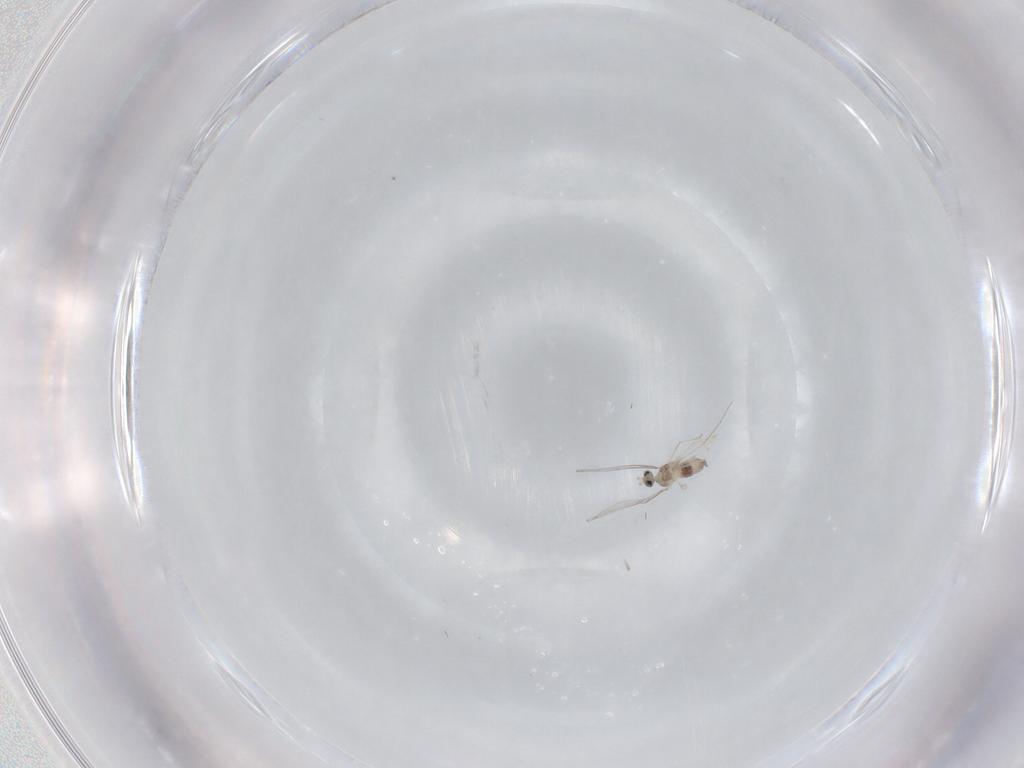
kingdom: Animalia
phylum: Arthropoda
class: Insecta
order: Diptera
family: Cecidomyiidae
